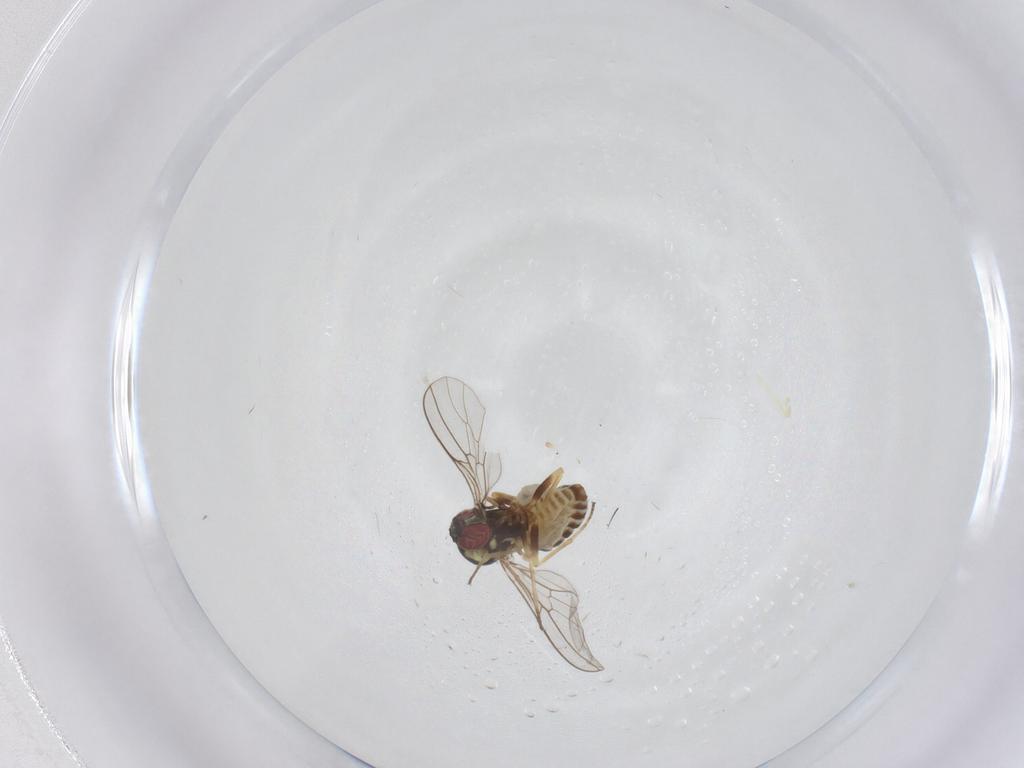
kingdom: Animalia
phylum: Arthropoda
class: Insecta
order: Diptera
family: Bombyliidae
